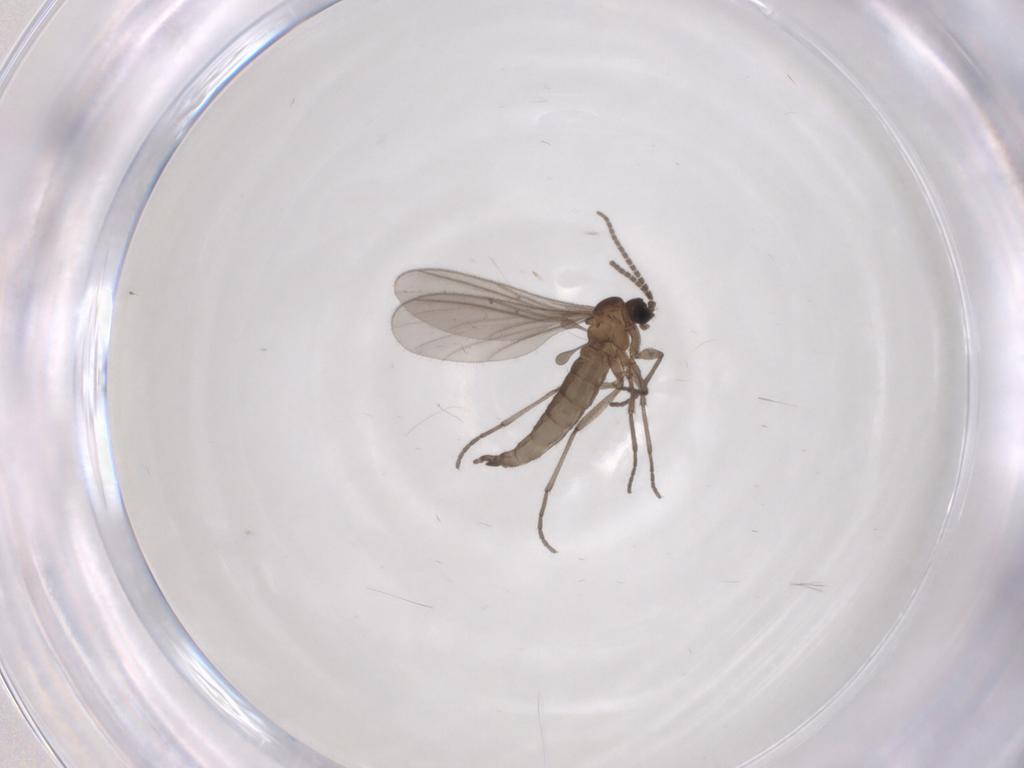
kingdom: Animalia
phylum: Arthropoda
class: Insecta
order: Diptera
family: Sciaridae
